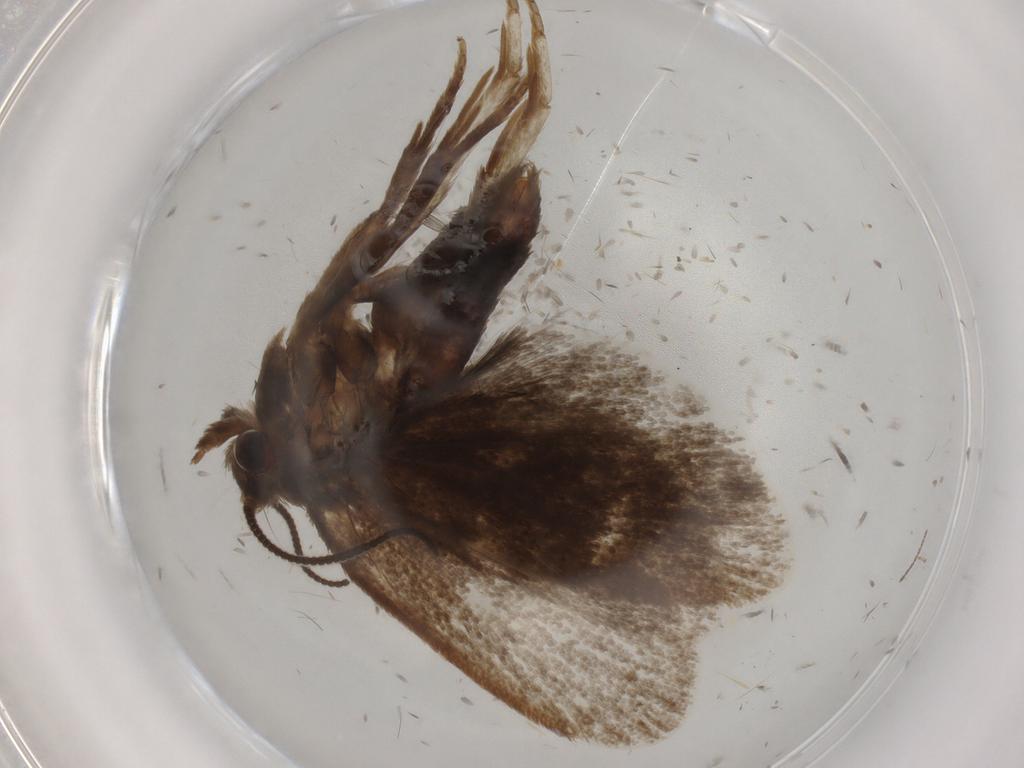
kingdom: Animalia
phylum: Arthropoda
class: Insecta
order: Lepidoptera
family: Tineidae
